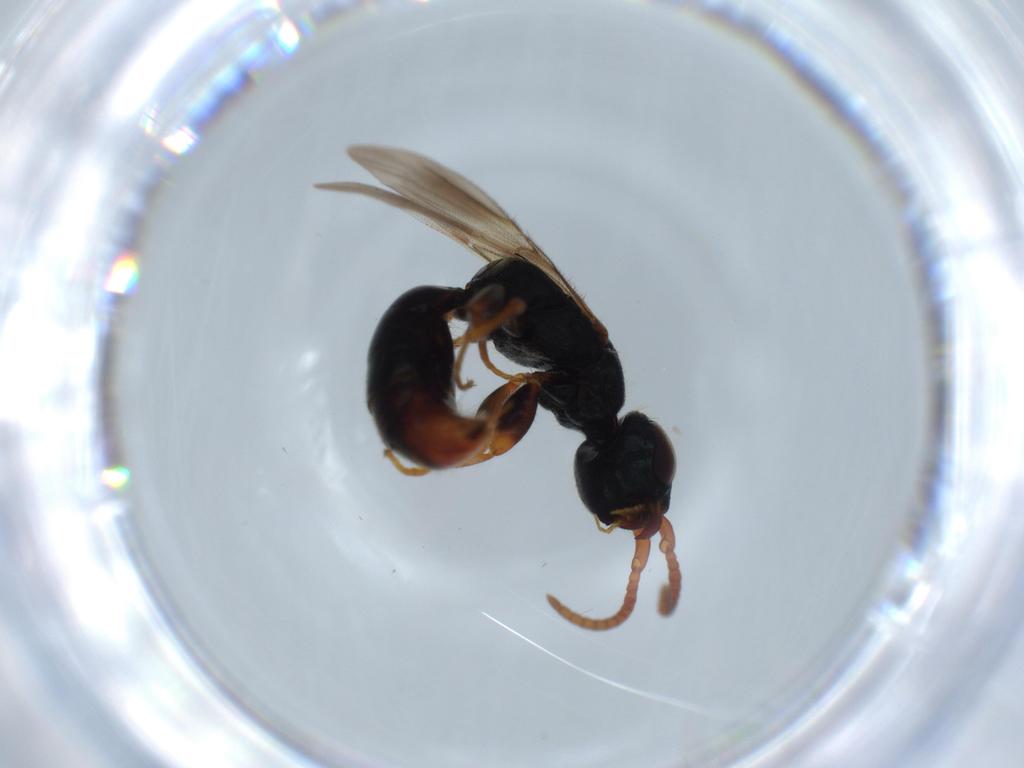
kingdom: Animalia
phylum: Arthropoda
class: Insecta
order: Hymenoptera
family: Bethylidae
